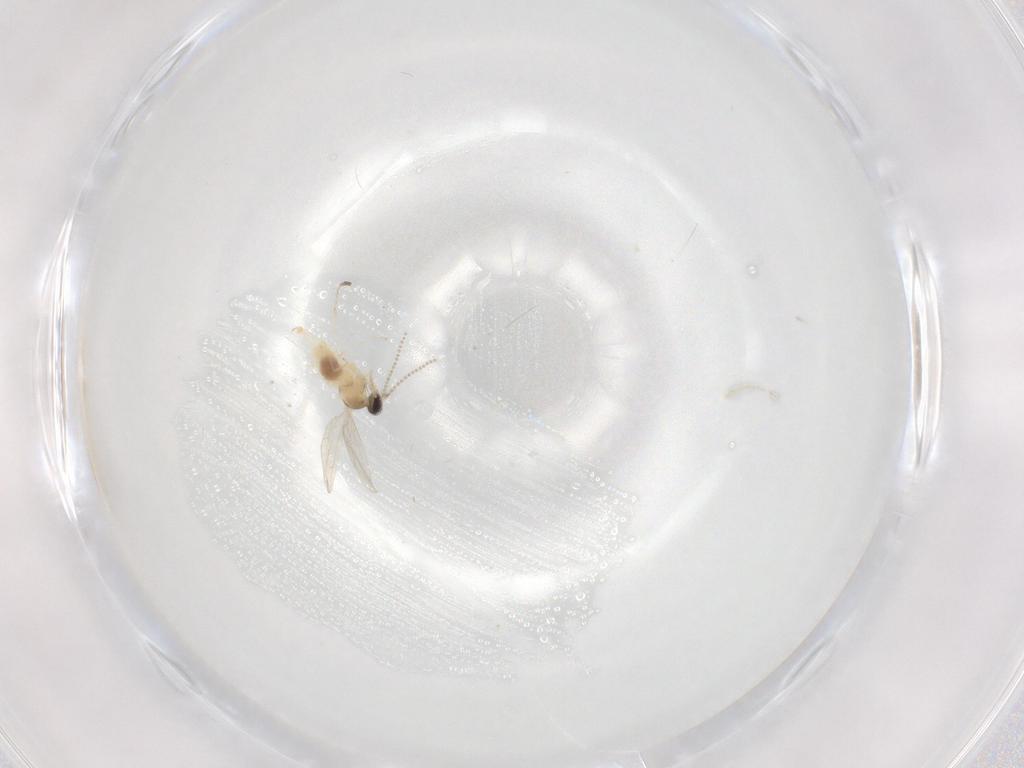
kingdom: Animalia
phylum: Arthropoda
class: Insecta
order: Diptera
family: Cecidomyiidae
